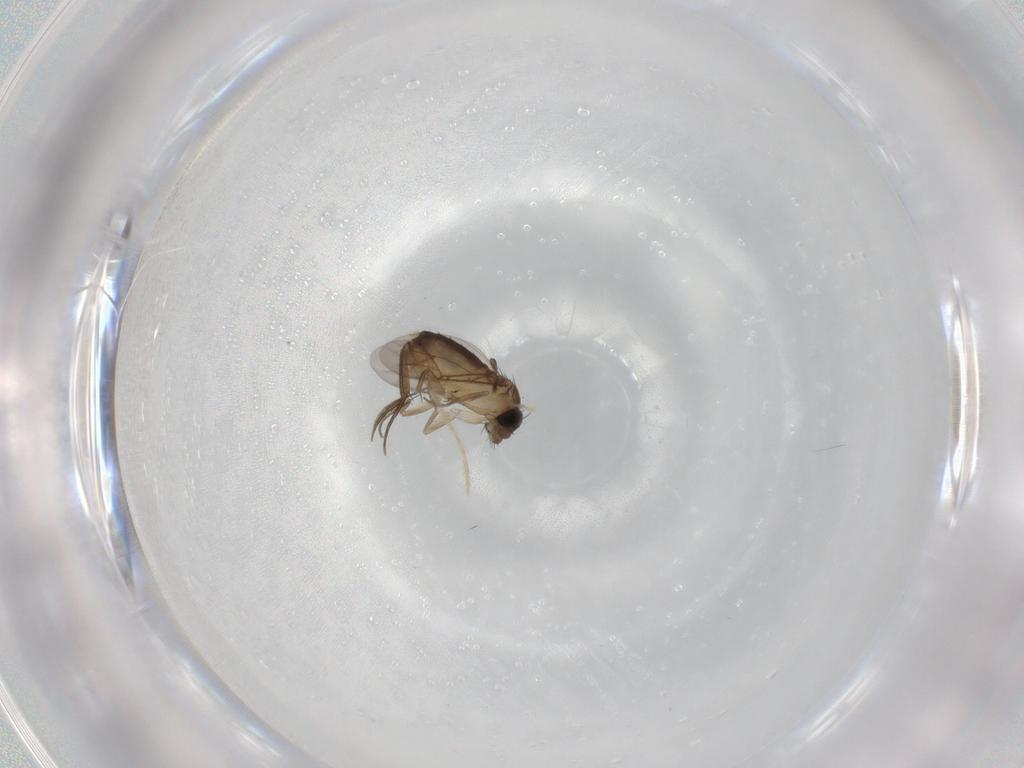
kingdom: Animalia
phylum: Arthropoda
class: Insecta
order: Diptera
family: Phoridae
